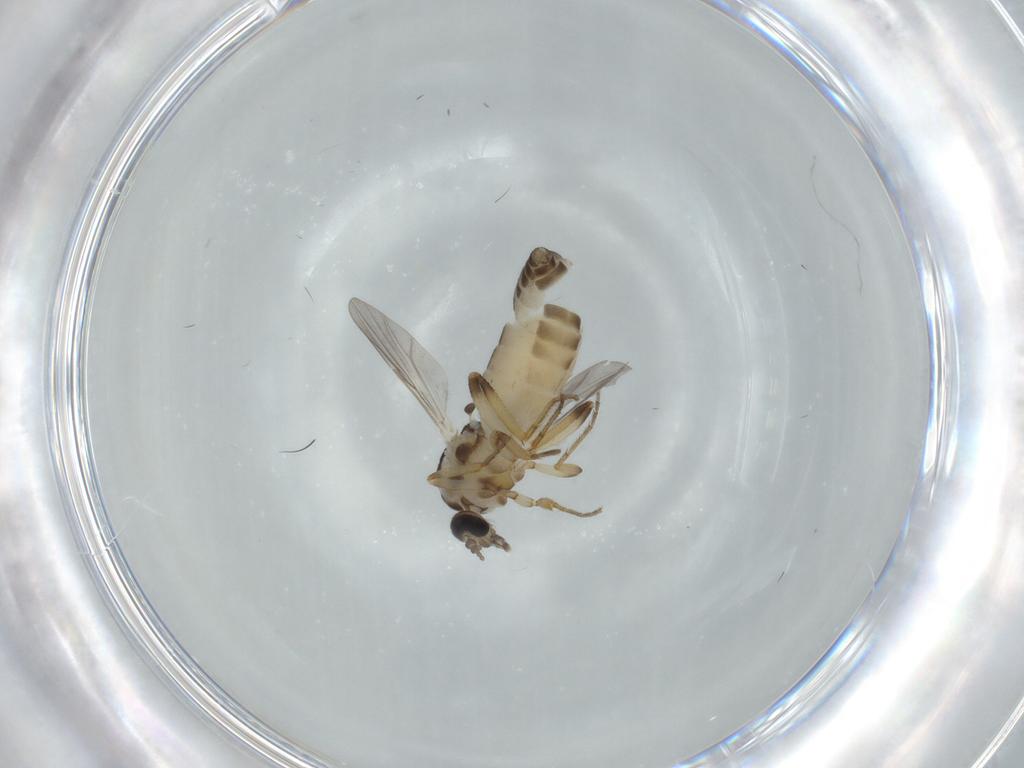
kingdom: Animalia
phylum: Arthropoda
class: Insecta
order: Diptera
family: Ceratopogonidae
